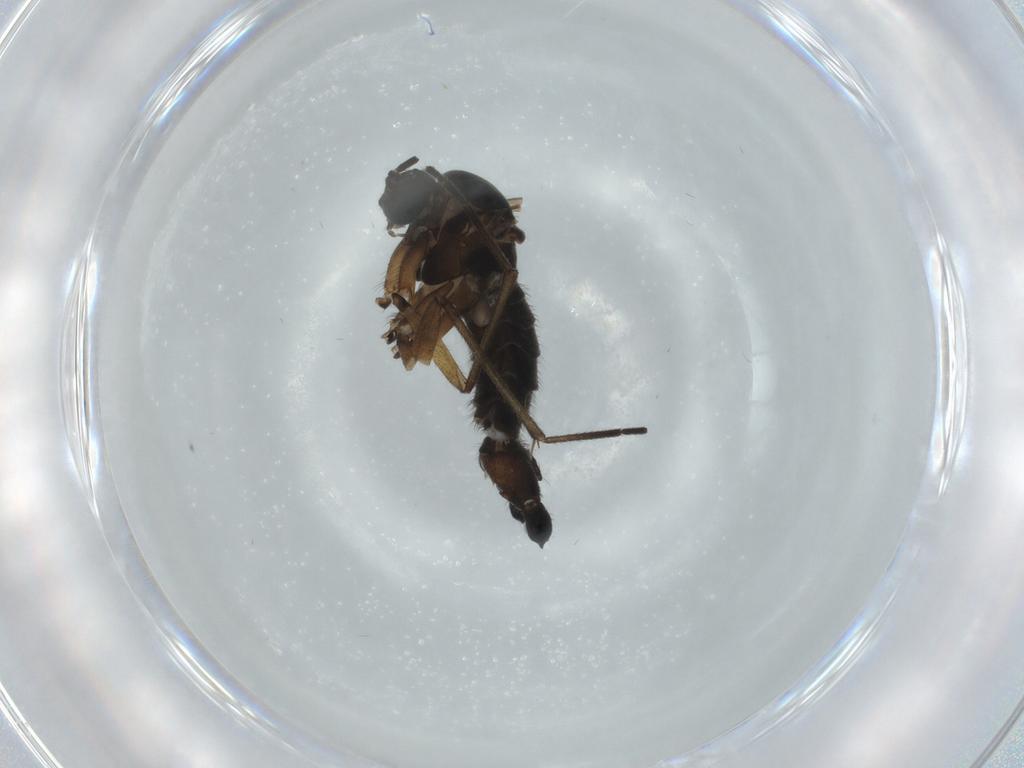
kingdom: Animalia
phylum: Arthropoda
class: Insecta
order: Diptera
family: Sciaridae
